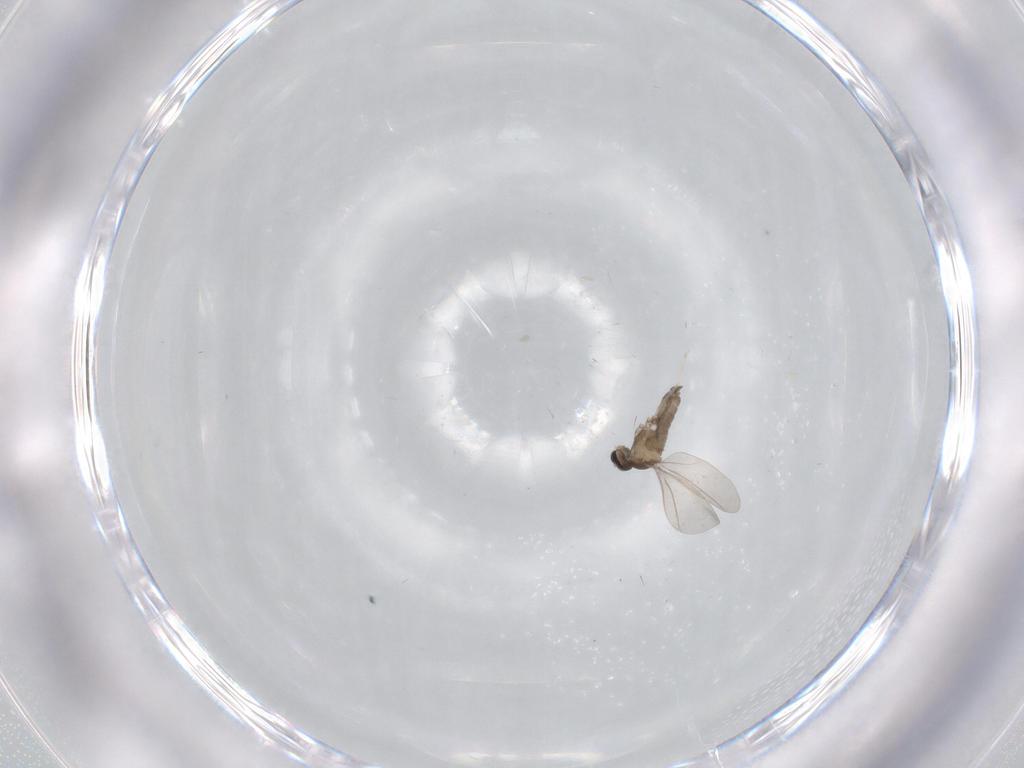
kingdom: Animalia
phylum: Arthropoda
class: Insecta
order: Diptera
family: Cecidomyiidae
